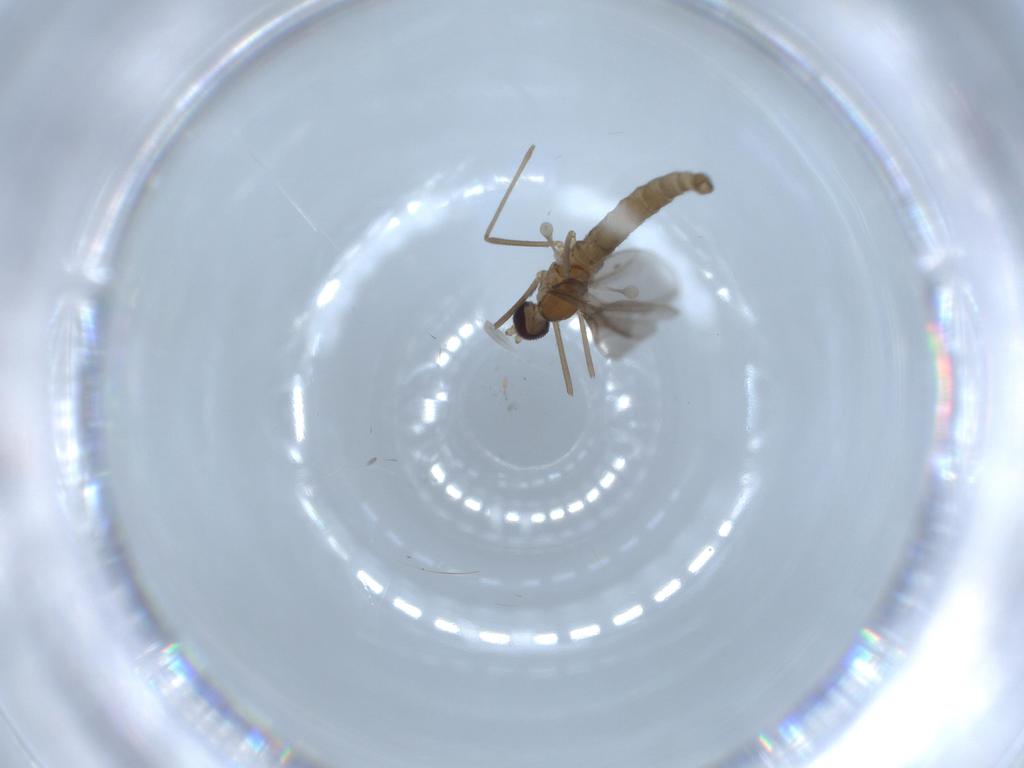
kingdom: Animalia
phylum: Arthropoda
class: Insecta
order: Diptera
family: Cecidomyiidae
